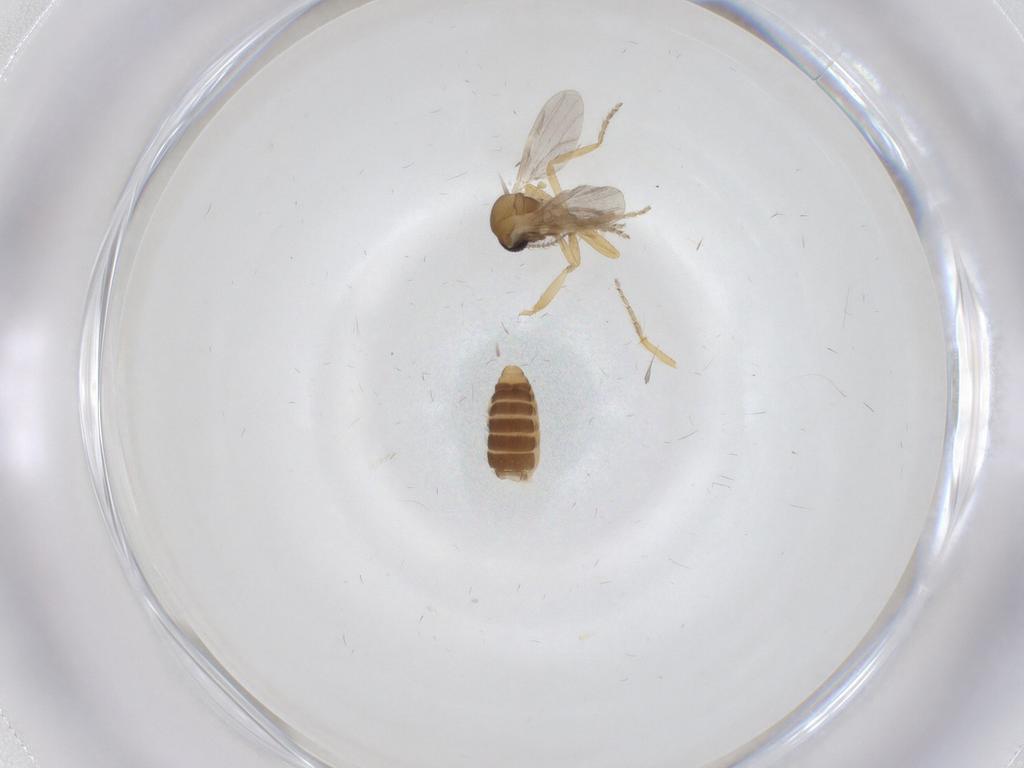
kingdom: Animalia
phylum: Arthropoda
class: Insecta
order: Diptera
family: Ceratopogonidae
